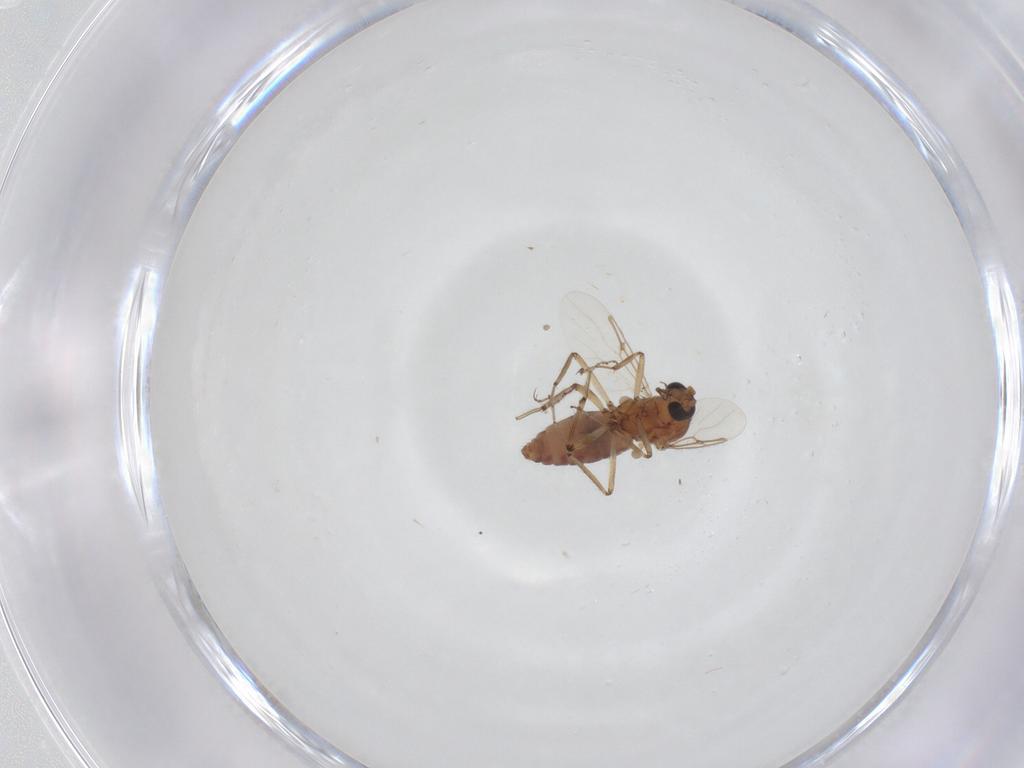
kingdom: Animalia
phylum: Arthropoda
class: Insecta
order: Diptera
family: Ceratopogonidae
